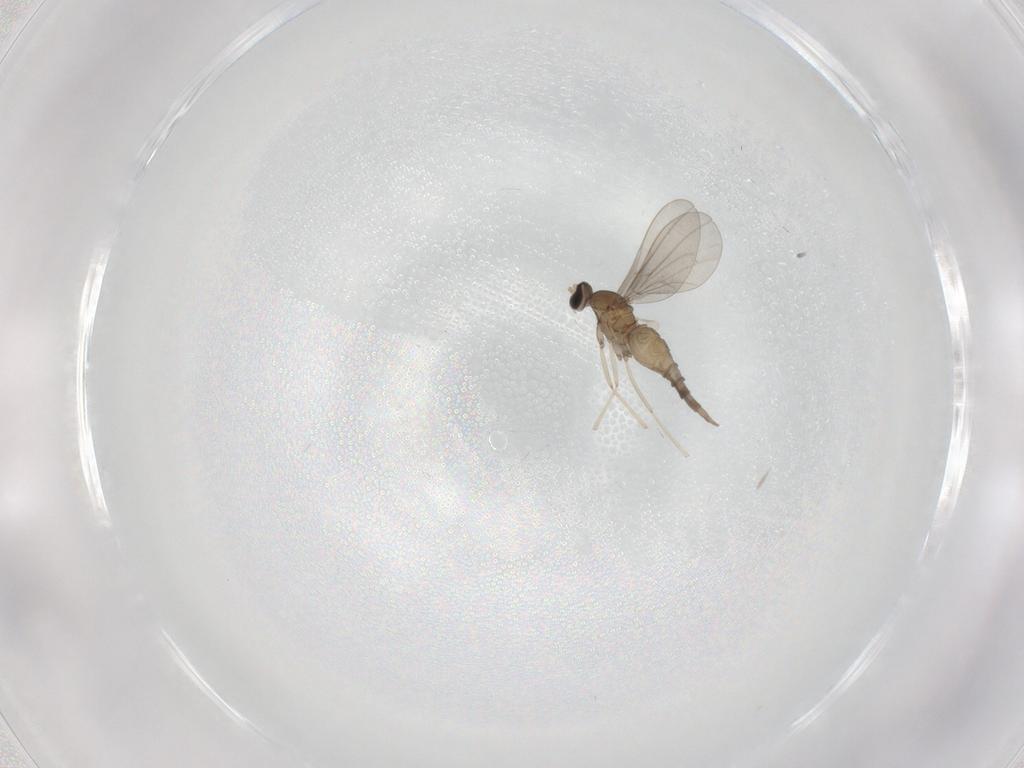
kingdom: Animalia
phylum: Arthropoda
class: Insecta
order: Diptera
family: Cecidomyiidae
